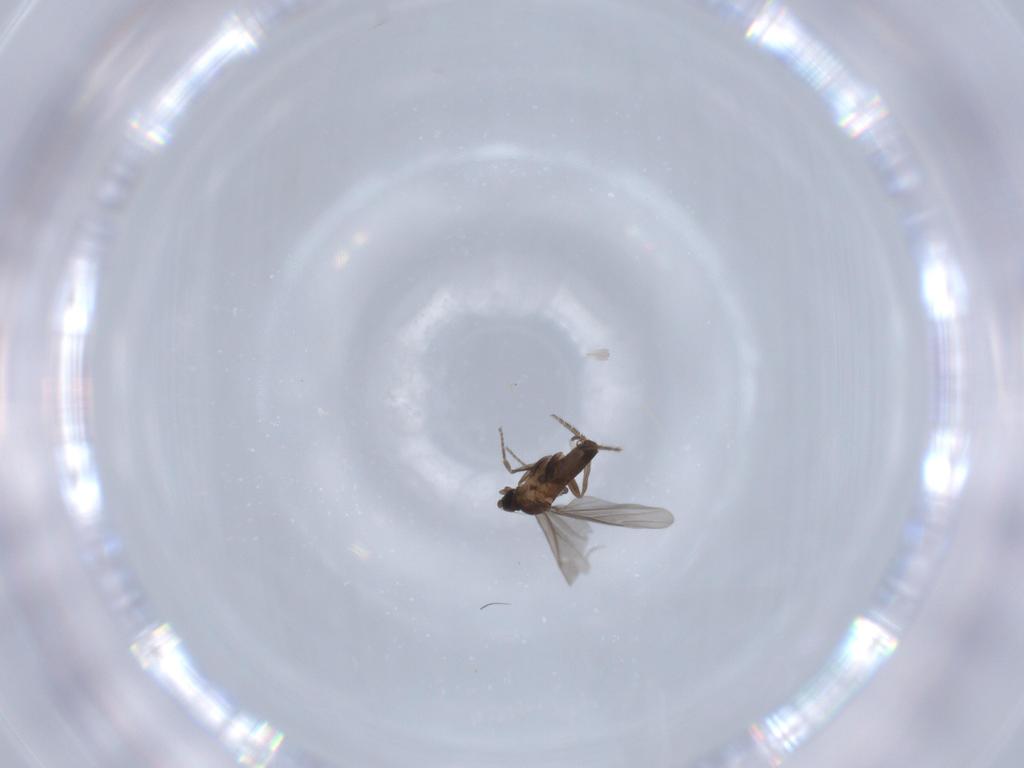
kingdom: Animalia
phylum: Arthropoda
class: Insecta
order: Diptera
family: Phoridae
